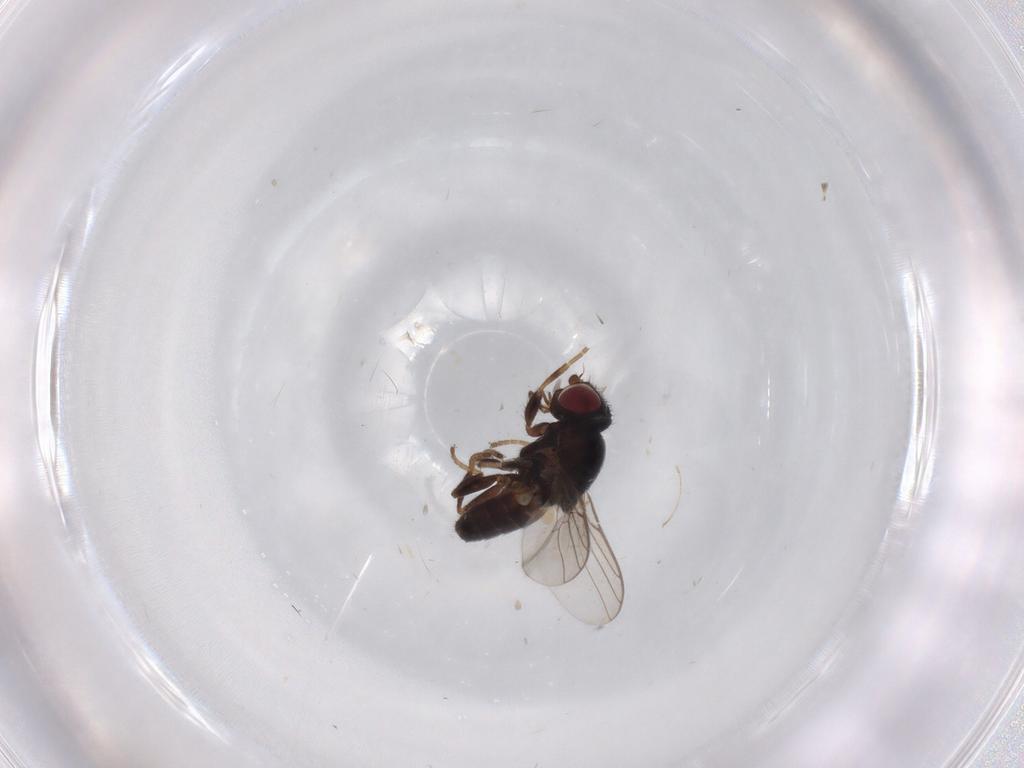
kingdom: Animalia
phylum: Arthropoda
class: Insecta
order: Diptera
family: Chloropidae
